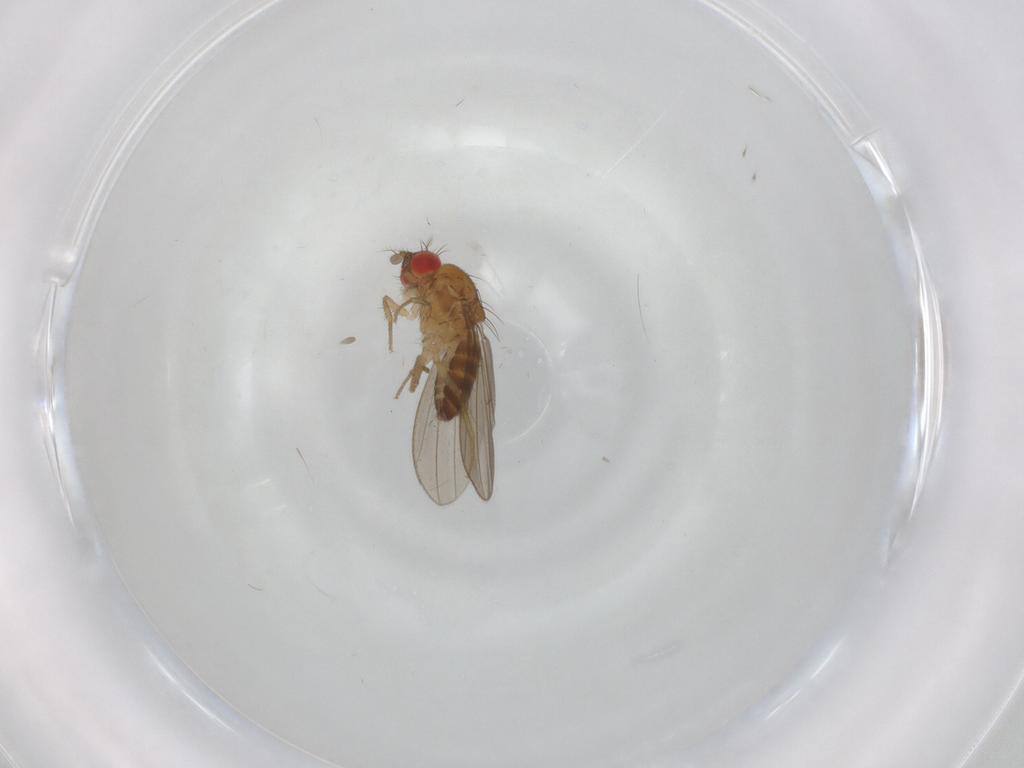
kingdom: Animalia
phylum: Arthropoda
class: Insecta
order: Diptera
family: Drosophilidae
